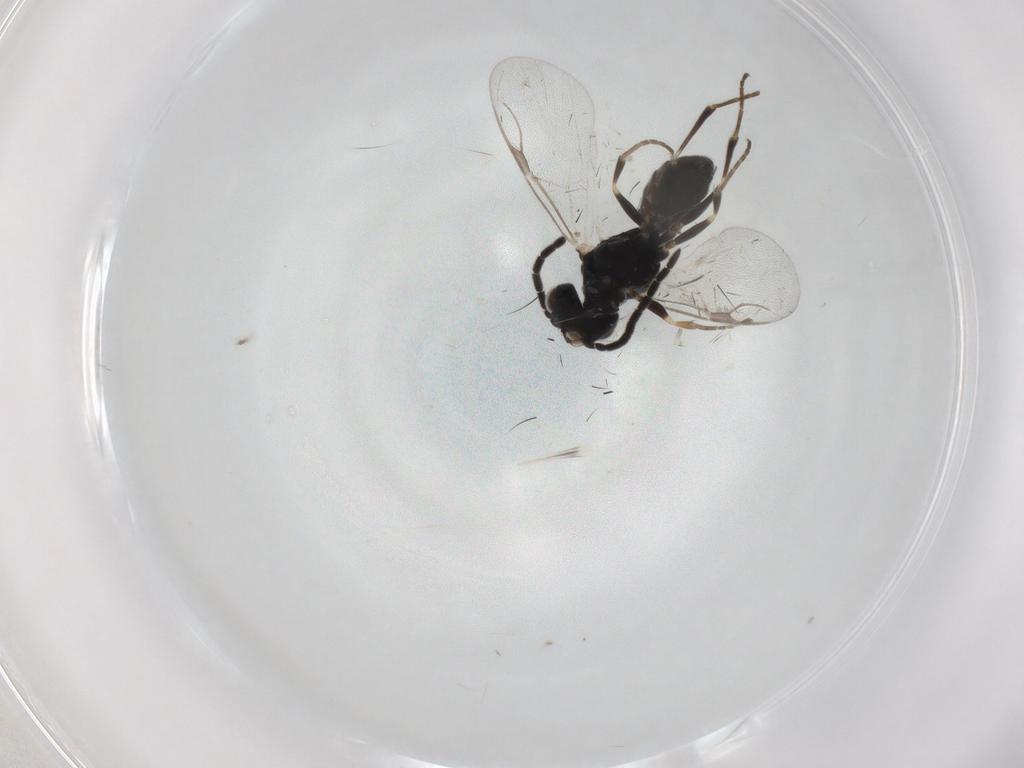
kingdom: Animalia
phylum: Arthropoda
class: Insecta
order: Hymenoptera
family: Dryinidae
